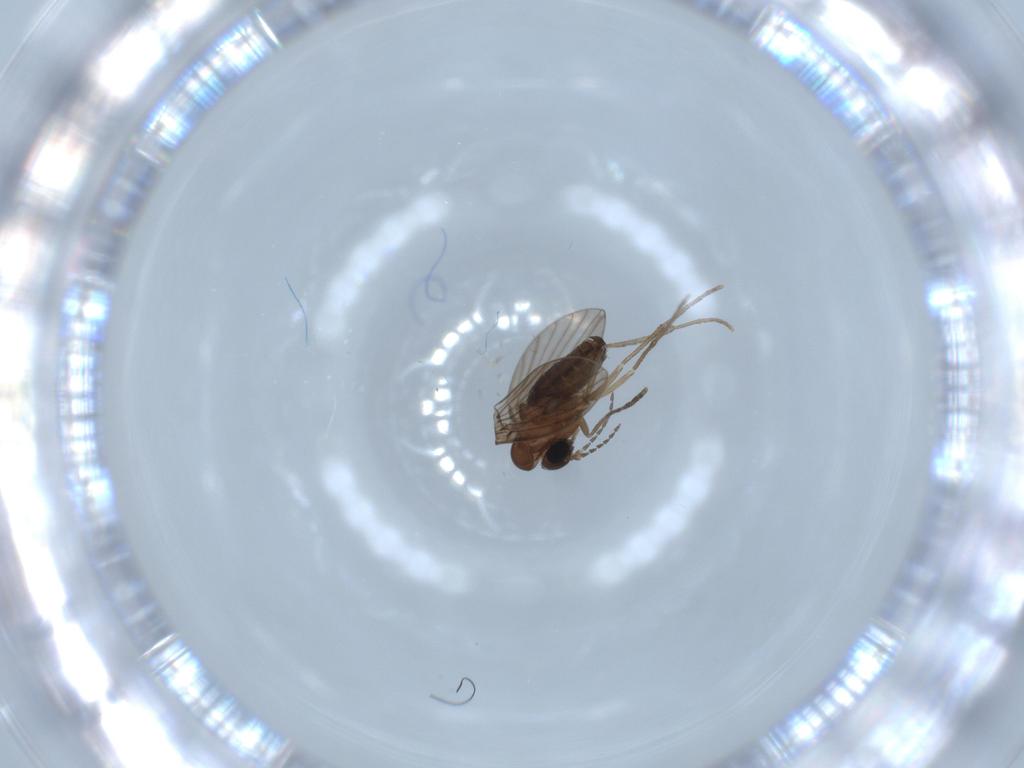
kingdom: Animalia
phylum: Arthropoda
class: Insecta
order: Diptera
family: Psychodidae
